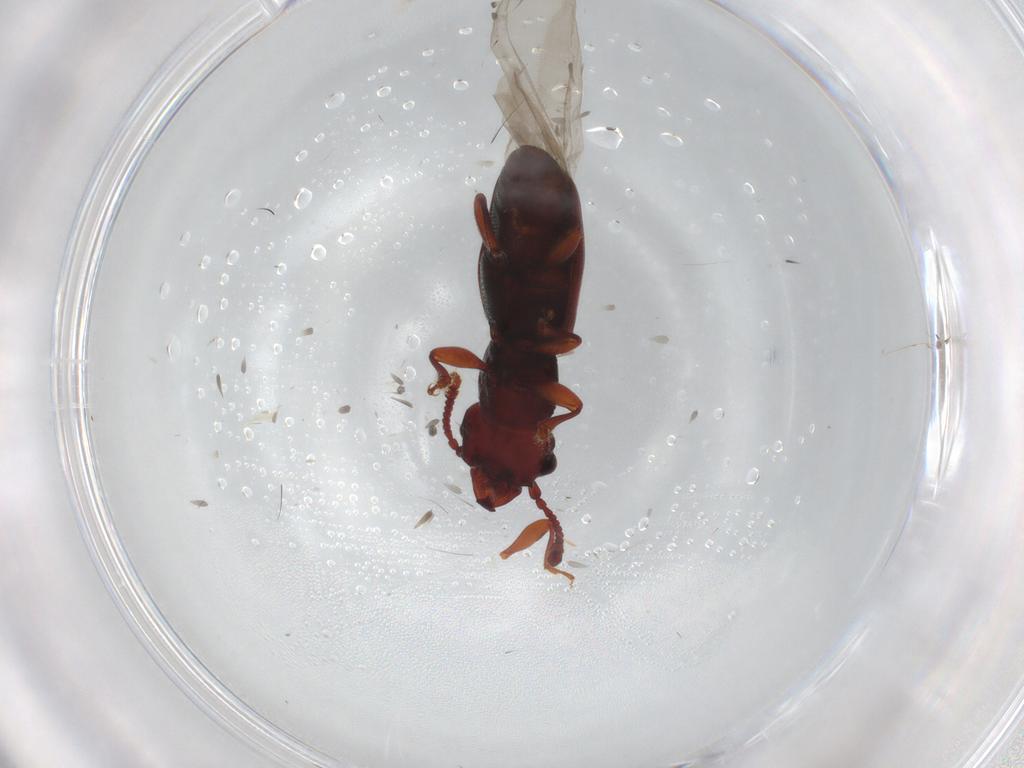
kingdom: Animalia
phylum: Arthropoda
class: Insecta
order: Coleoptera
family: Monotomidae
